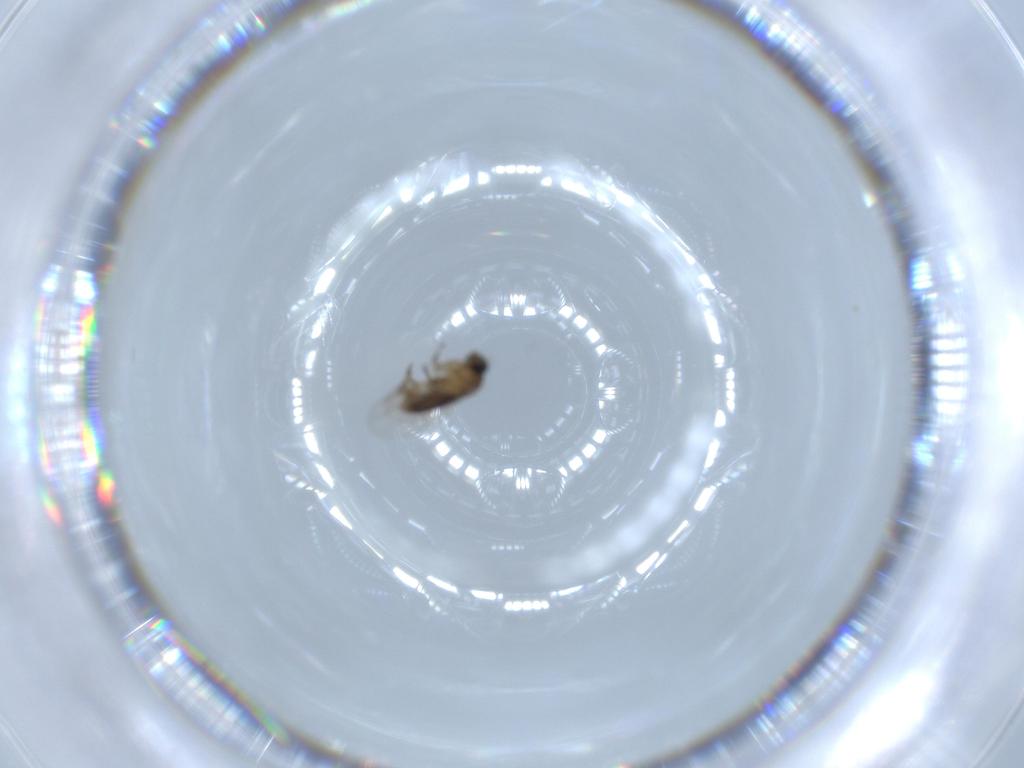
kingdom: Animalia
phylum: Arthropoda
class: Insecta
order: Diptera
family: Phoridae
